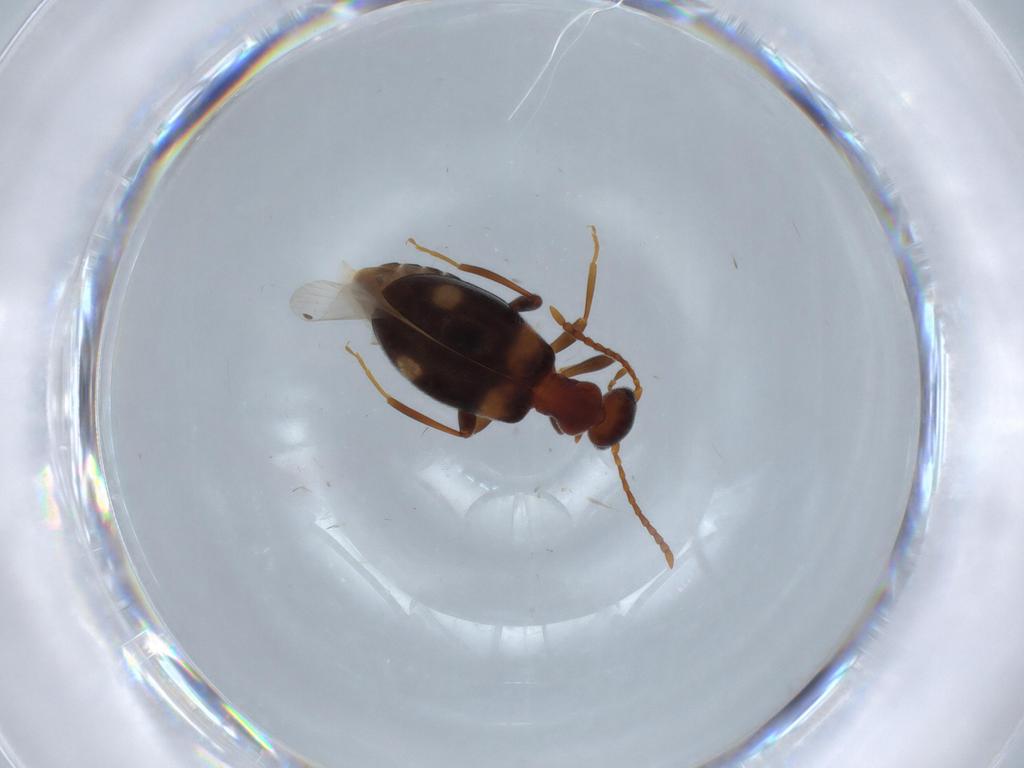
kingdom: Animalia
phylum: Arthropoda
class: Insecta
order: Coleoptera
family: Anthicidae
